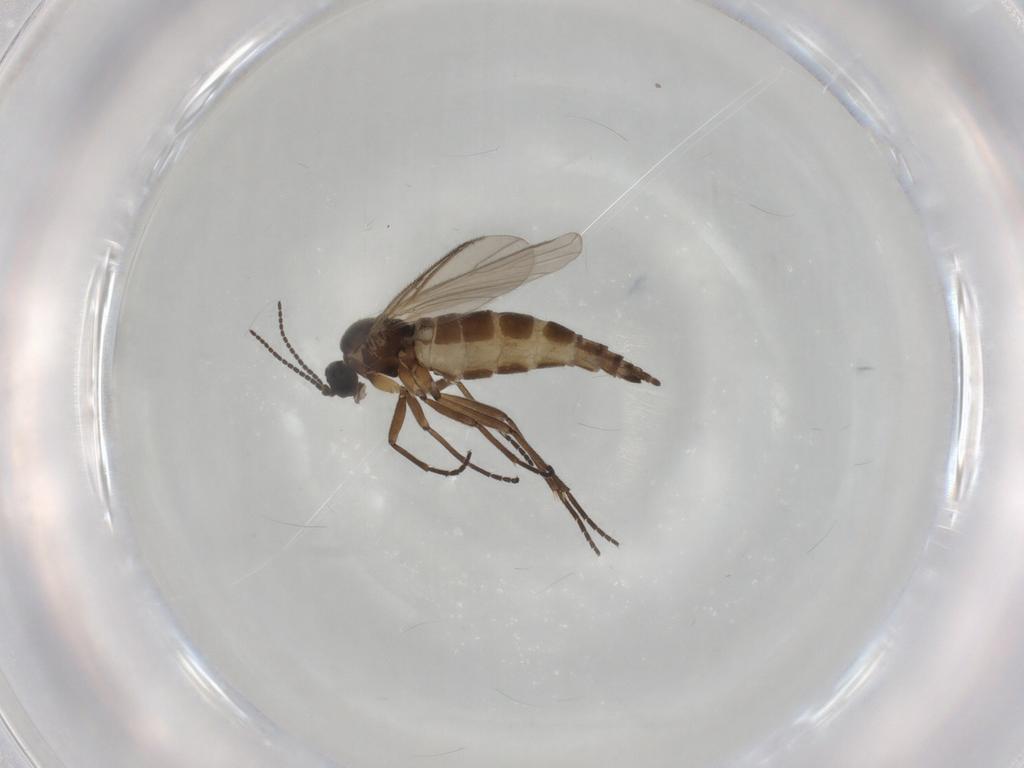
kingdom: Animalia
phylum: Arthropoda
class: Insecta
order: Diptera
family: Sciaridae
